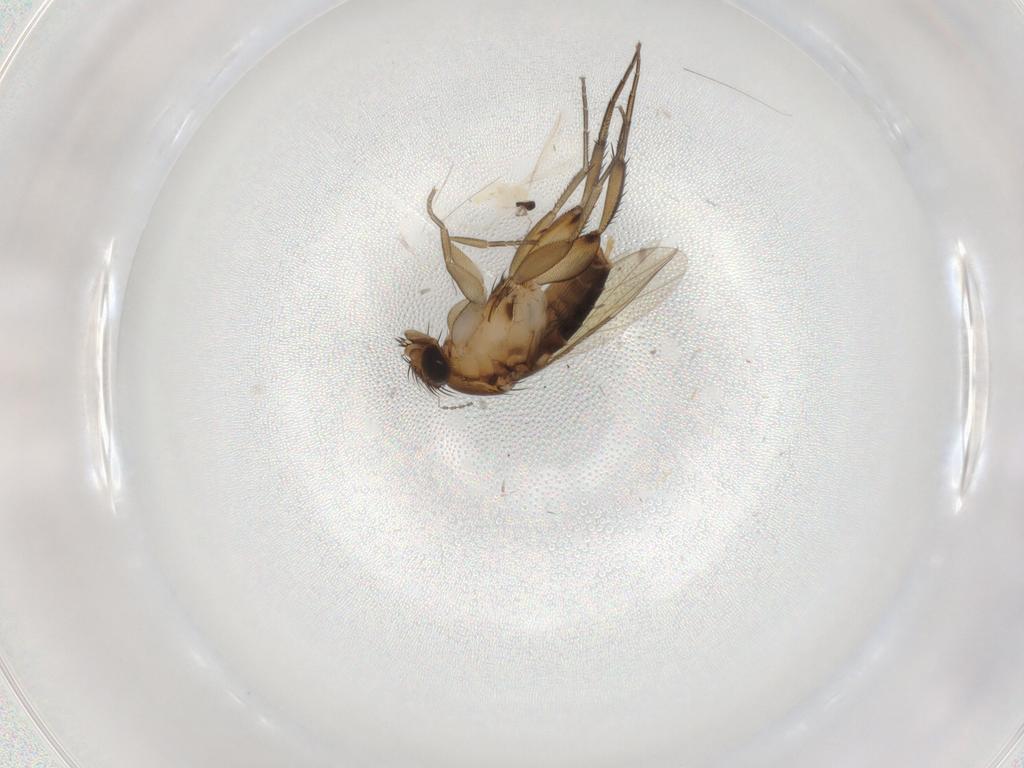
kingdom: Animalia
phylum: Arthropoda
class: Insecta
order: Diptera
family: Phoridae
